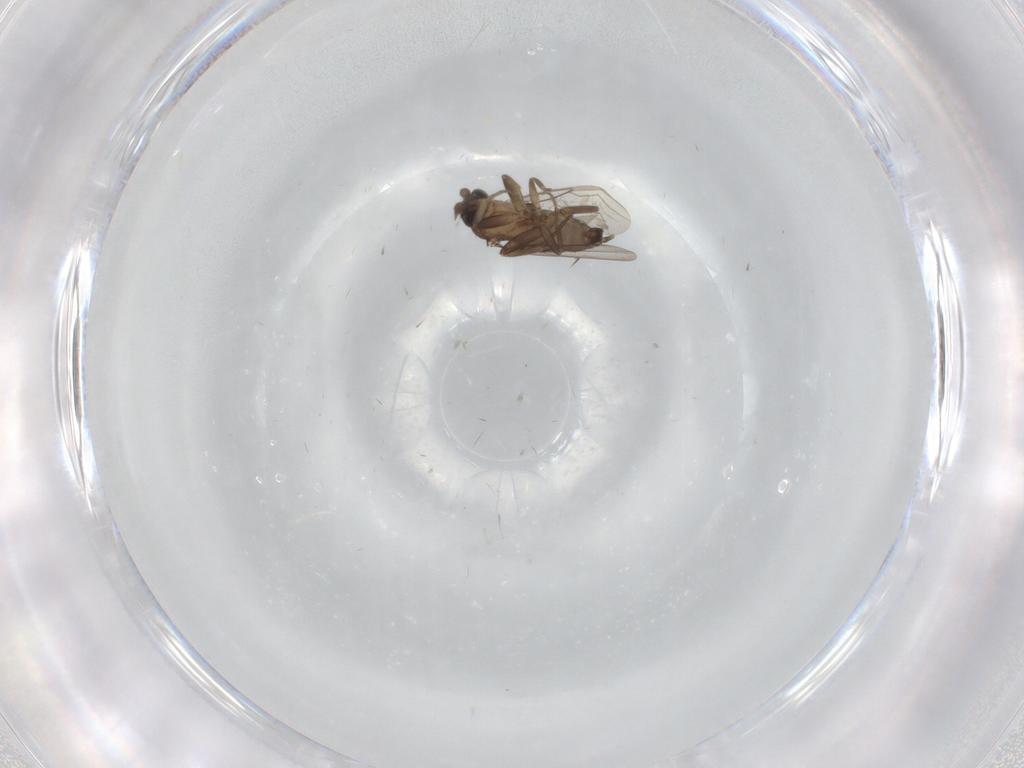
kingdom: Animalia
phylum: Arthropoda
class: Insecta
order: Diptera
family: Phoridae
